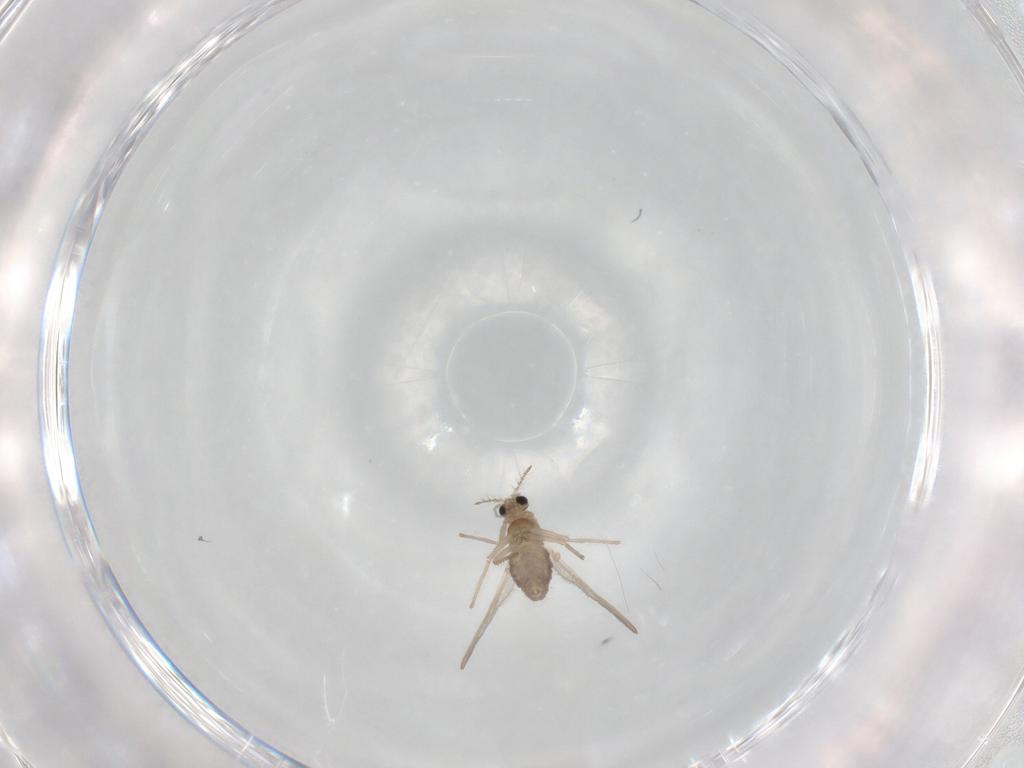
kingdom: Animalia
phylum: Arthropoda
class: Insecta
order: Diptera
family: Chironomidae
